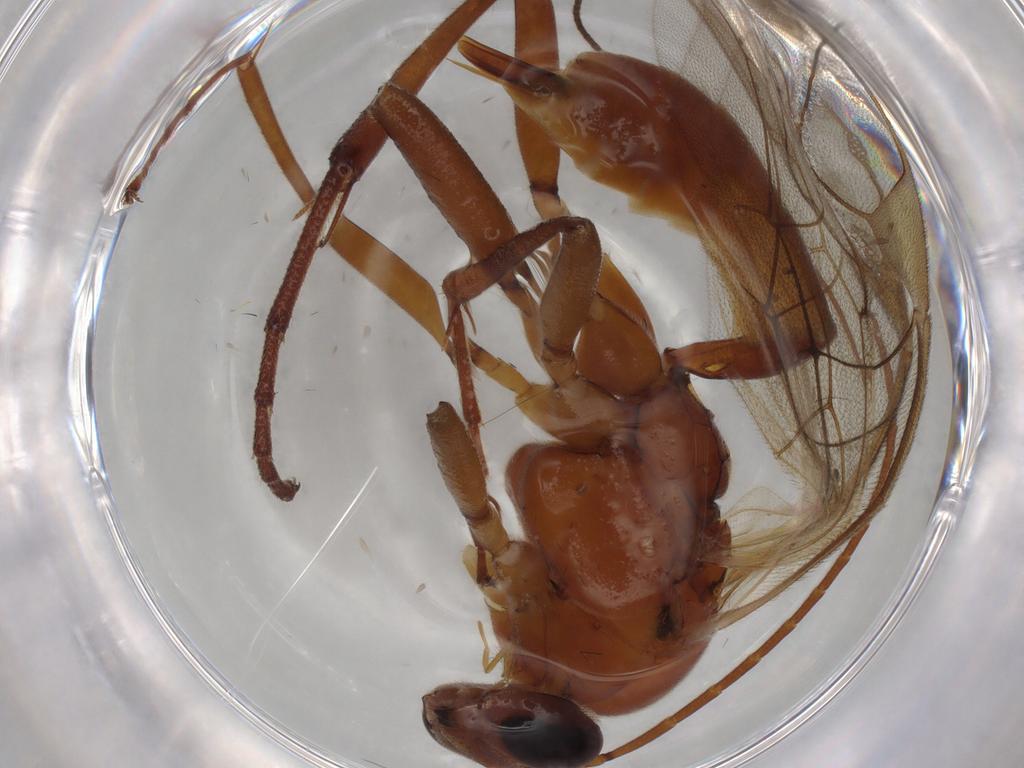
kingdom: Animalia
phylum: Arthropoda
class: Insecta
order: Hymenoptera
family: Ichneumonidae
